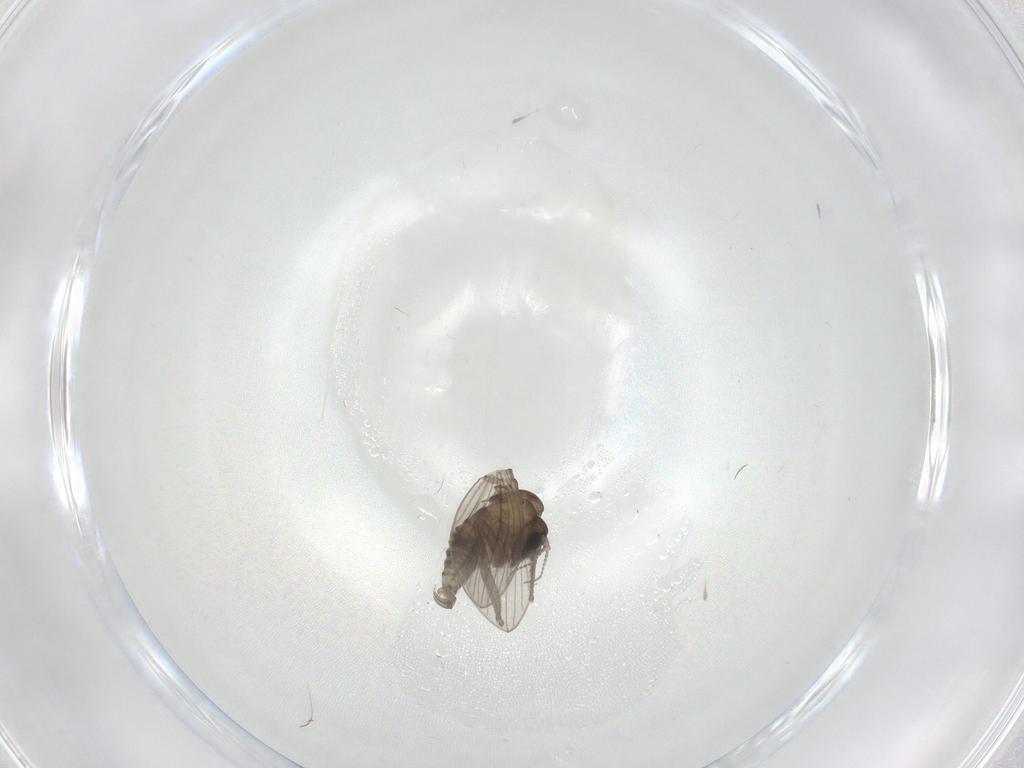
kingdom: Animalia
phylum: Arthropoda
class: Insecta
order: Diptera
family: Psychodidae
